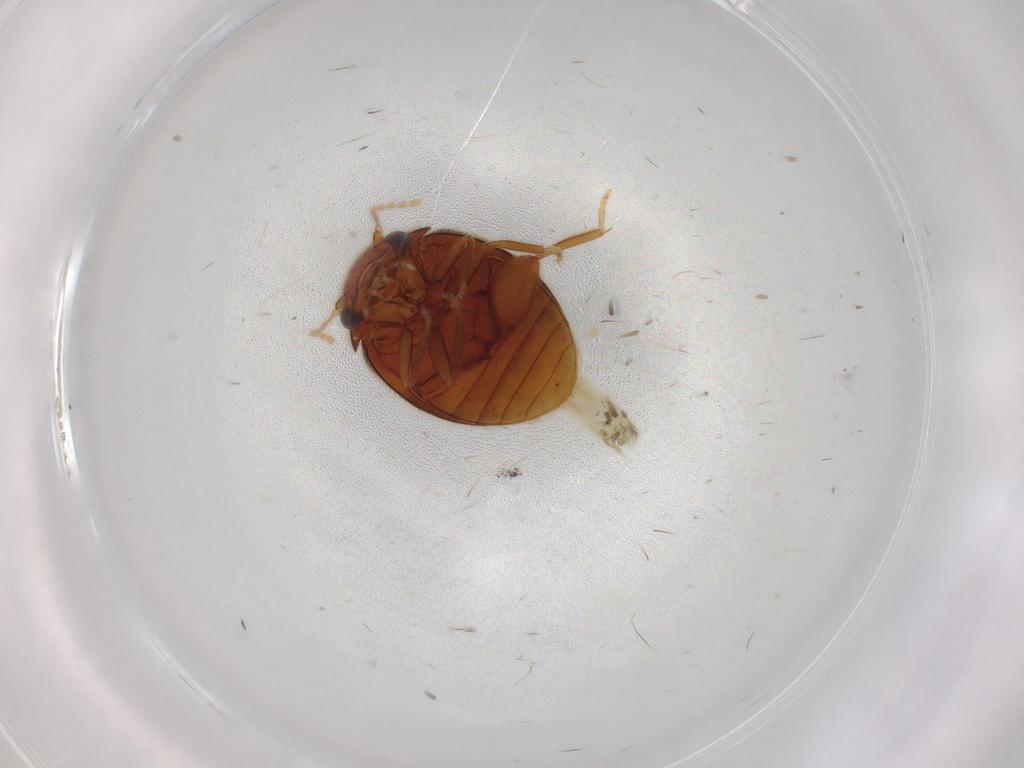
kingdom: Animalia
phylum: Arthropoda
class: Insecta
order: Coleoptera
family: Scirtidae
